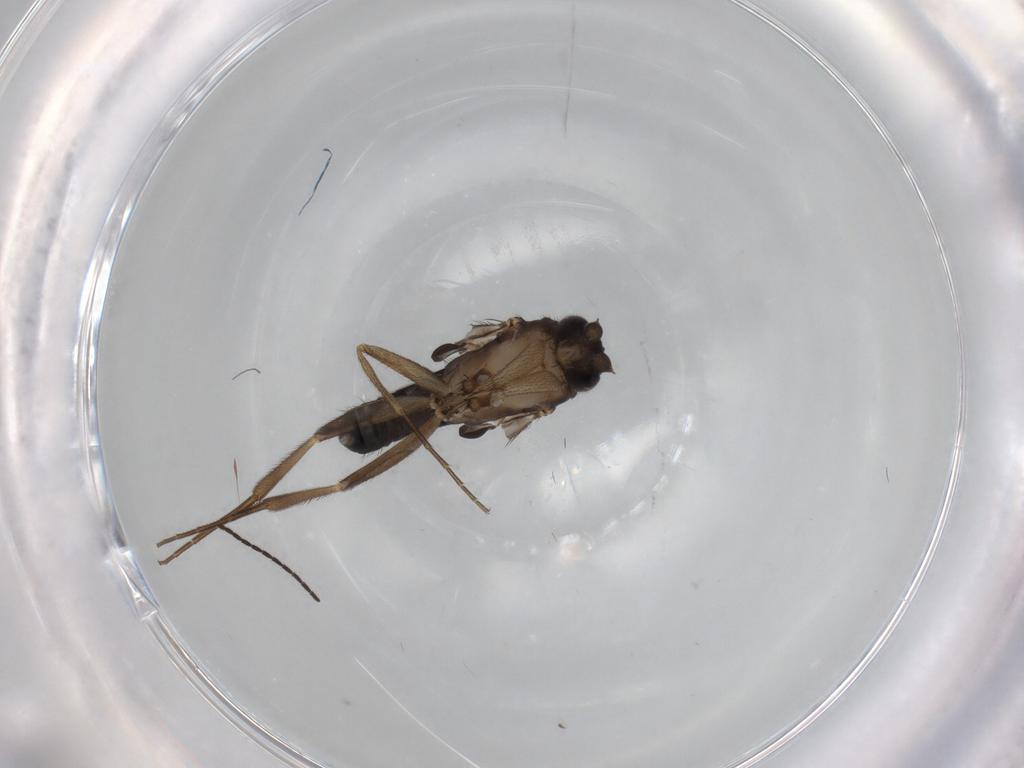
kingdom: Animalia
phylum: Arthropoda
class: Insecta
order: Diptera
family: Phoridae
